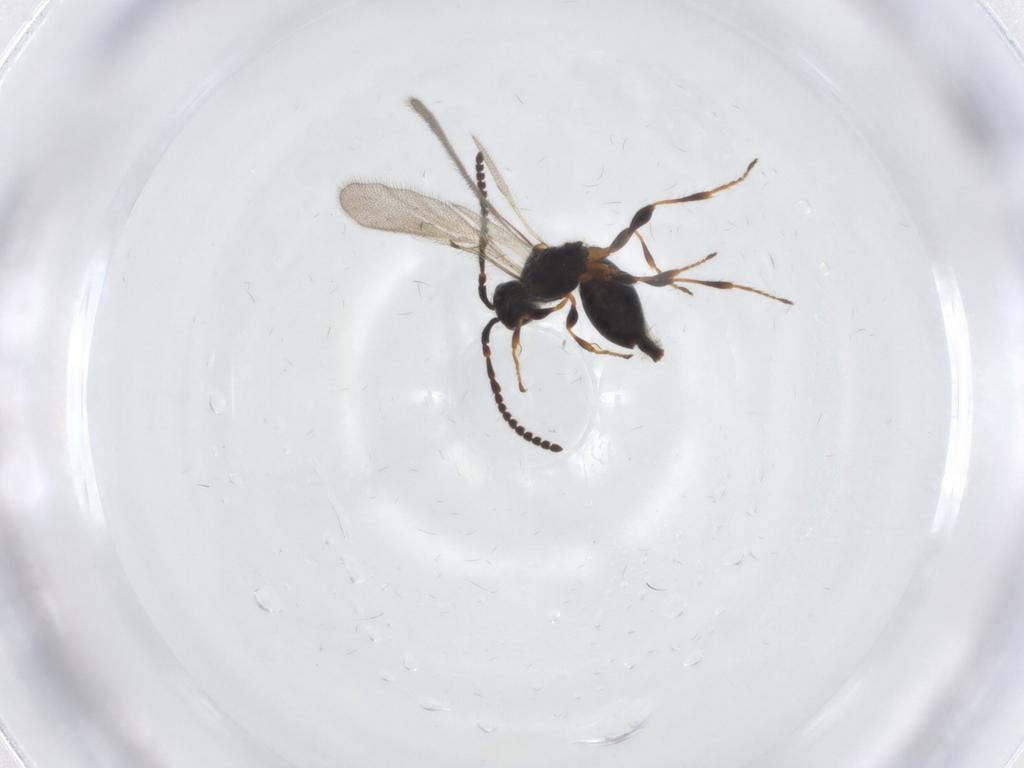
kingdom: Animalia
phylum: Arthropoda
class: Insecta
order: Hymenoptera
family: Diapriidae
